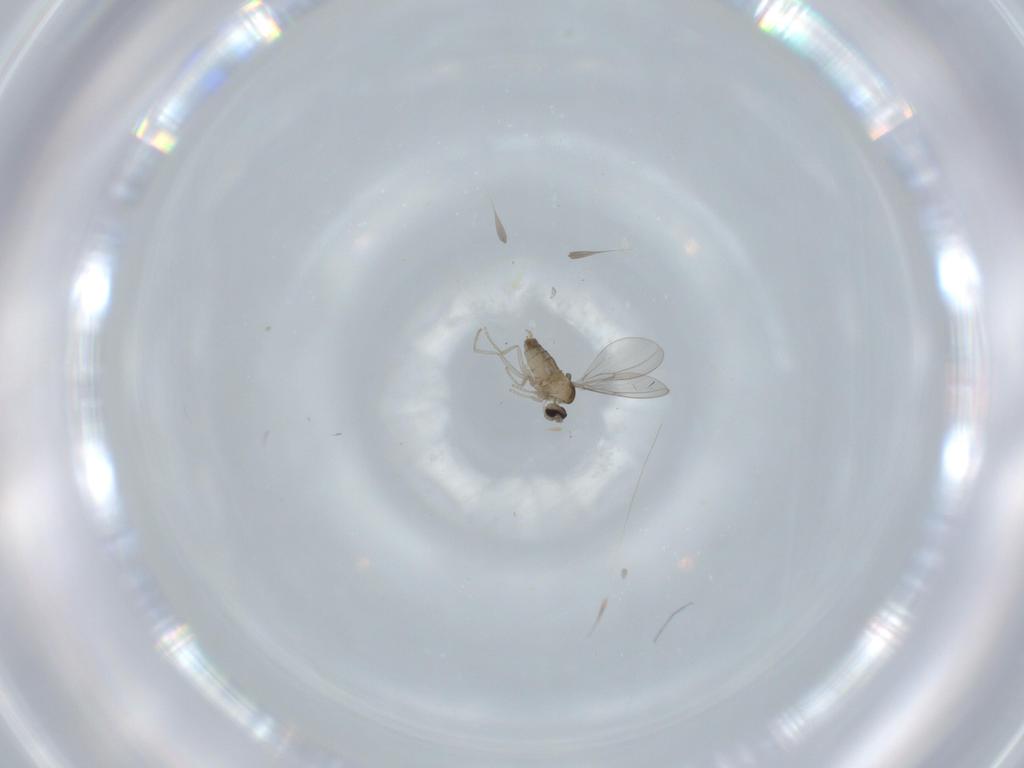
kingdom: Animalia
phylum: Arthropoda
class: Insecta
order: Diptera
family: Cecidomyiidae
